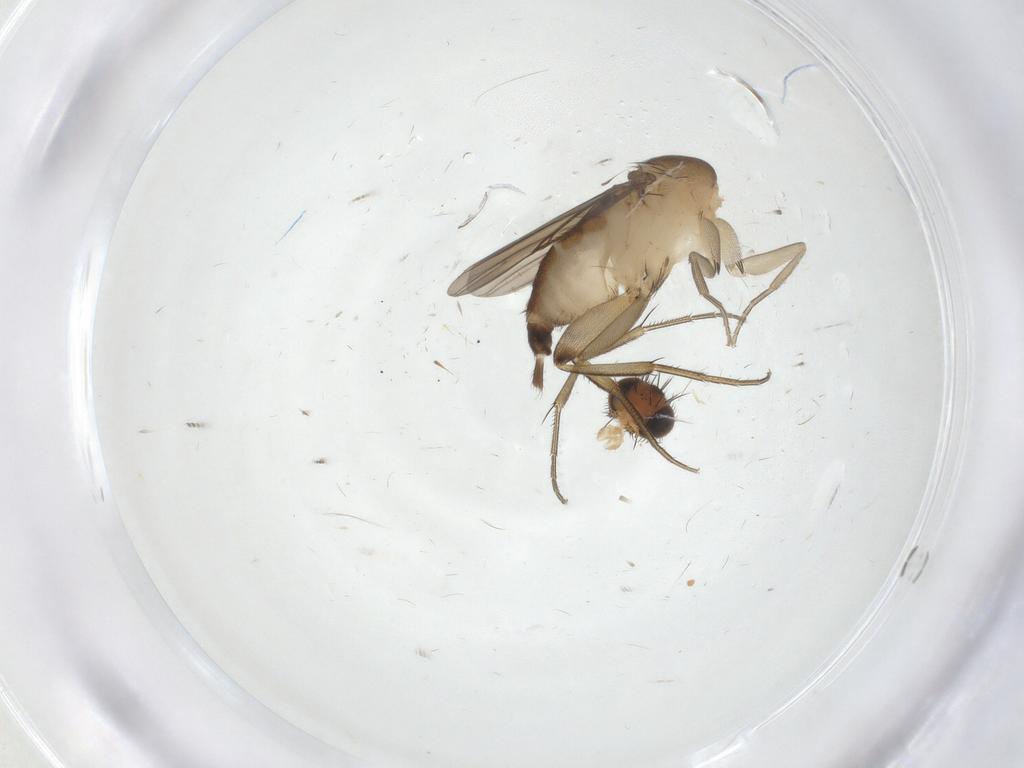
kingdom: Animalia
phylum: Arthropoda
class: Insecta
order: Diptera
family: Phoridae
